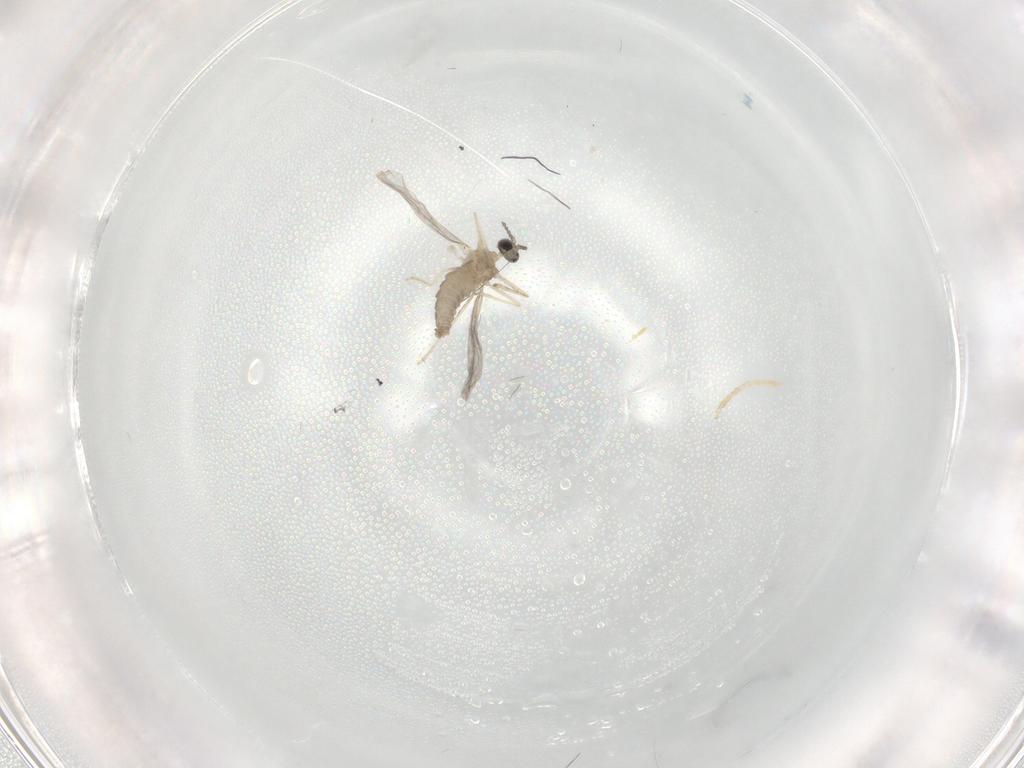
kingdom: Animalia
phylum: Arthropoda
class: Insecta
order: Diptera
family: Cecidomyiidae
